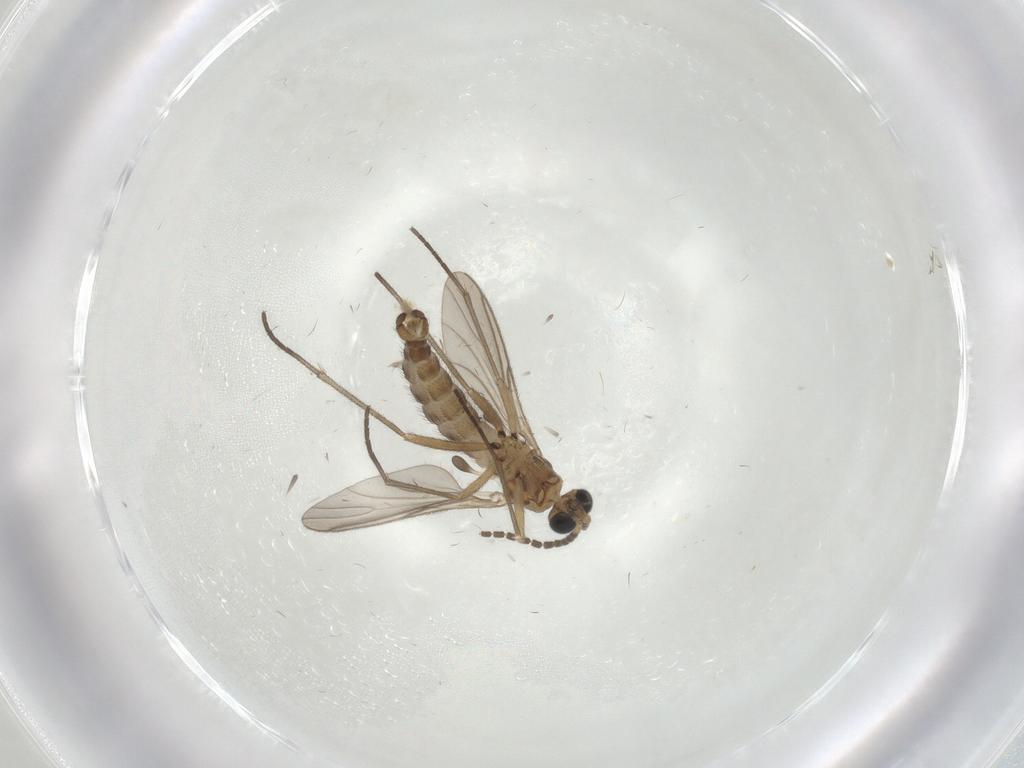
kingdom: Animalia
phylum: Arthropoda
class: Insecta
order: Diptera
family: Sciaridae
